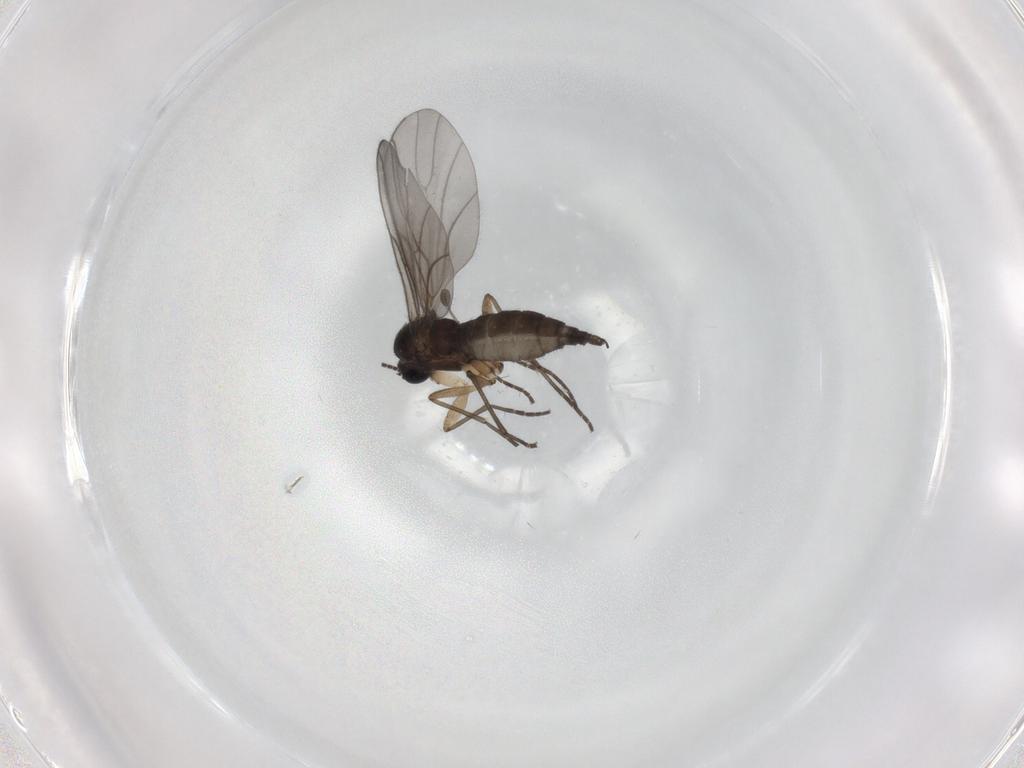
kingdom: Animalia
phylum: Arthropoda
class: Insecta
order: Diptera
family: Sciaridae
